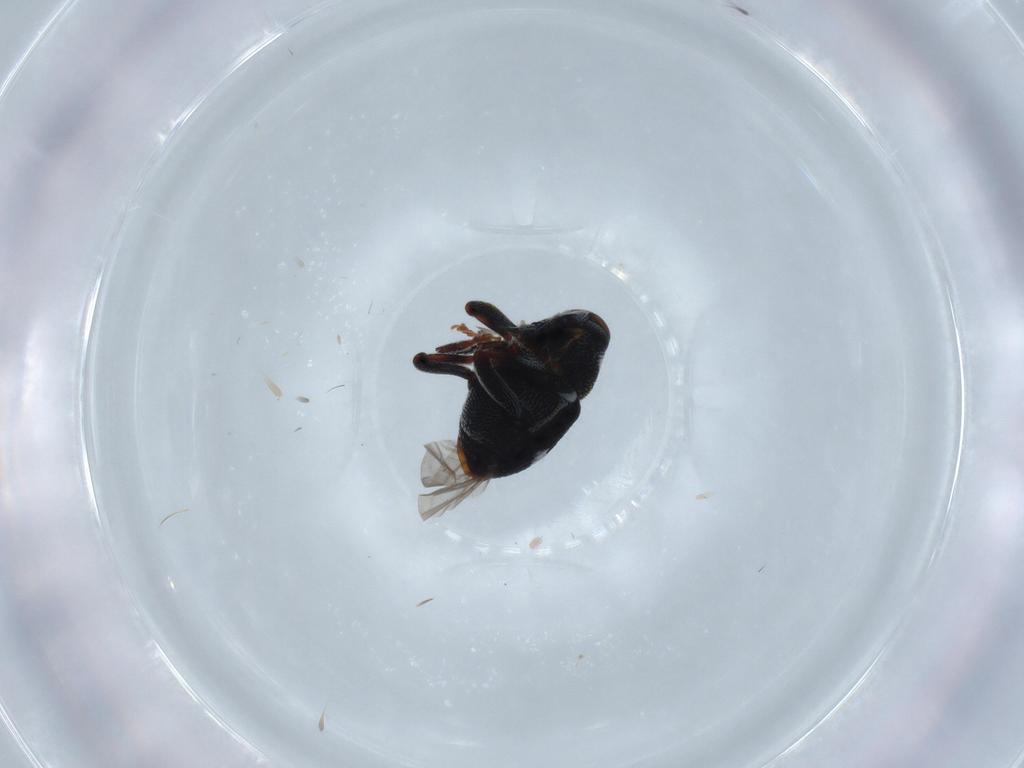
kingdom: Animalia
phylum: Arthropoda
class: Insecta
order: Coleoptera
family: Curculionidae
